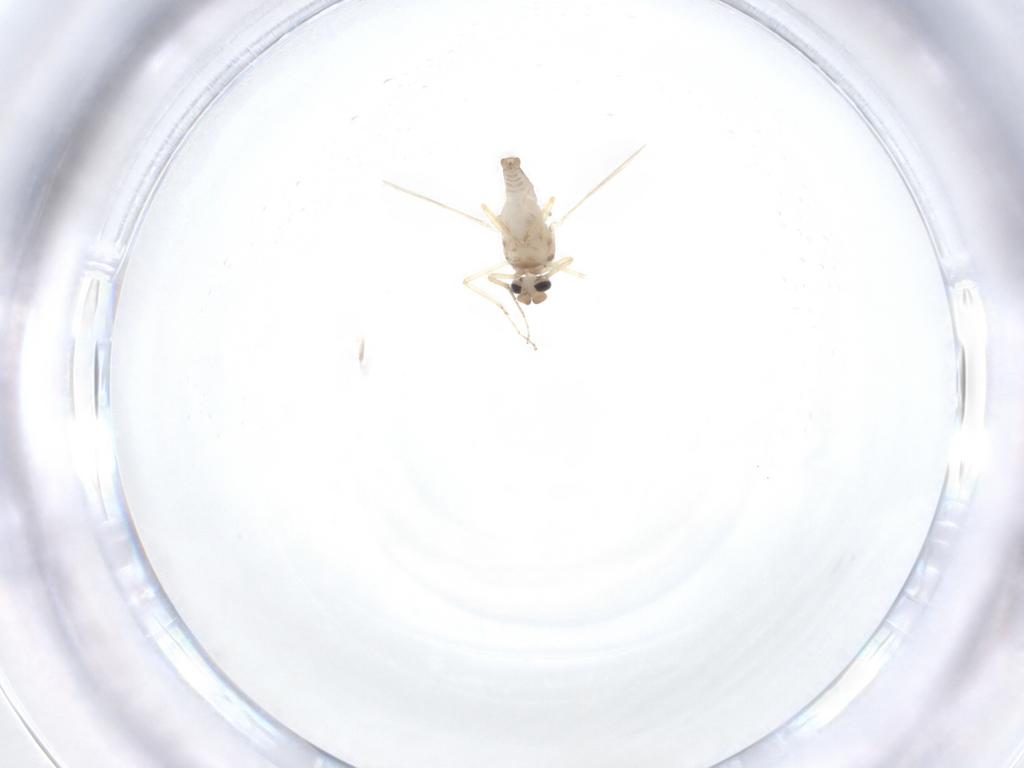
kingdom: Animalia
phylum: Arthropoda
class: Insecta
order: Diptera
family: Ceratopogonidae
